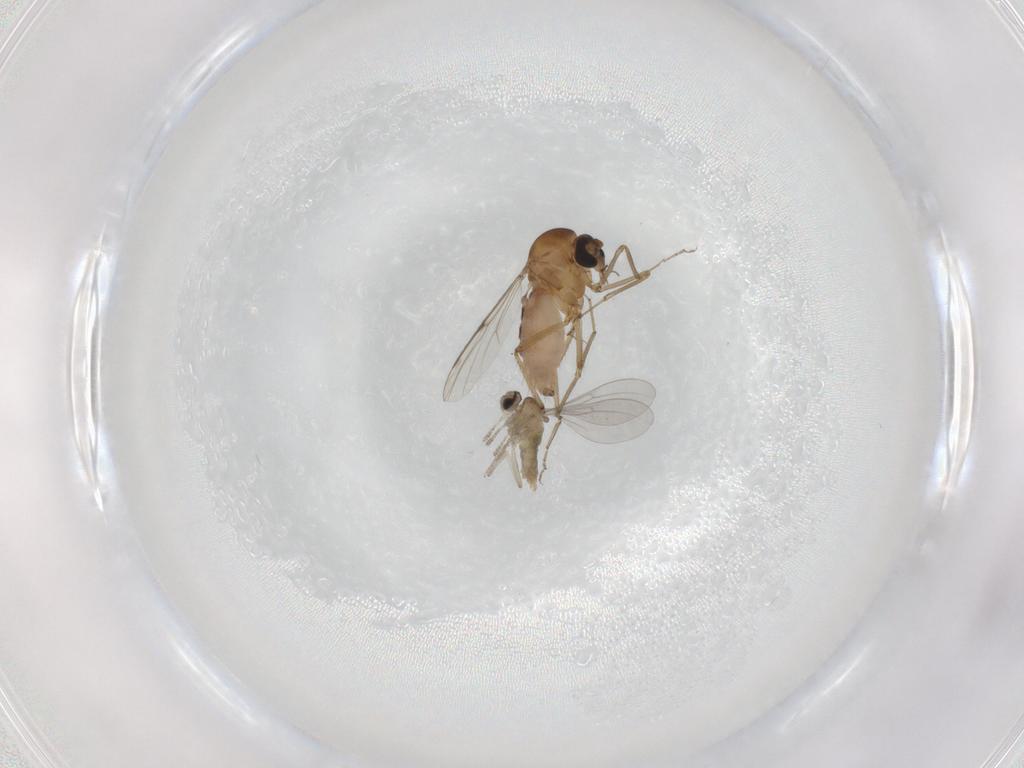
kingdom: Animalia
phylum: Arthropoda
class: Insecta
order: Diptera
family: Ceratopogonidae
